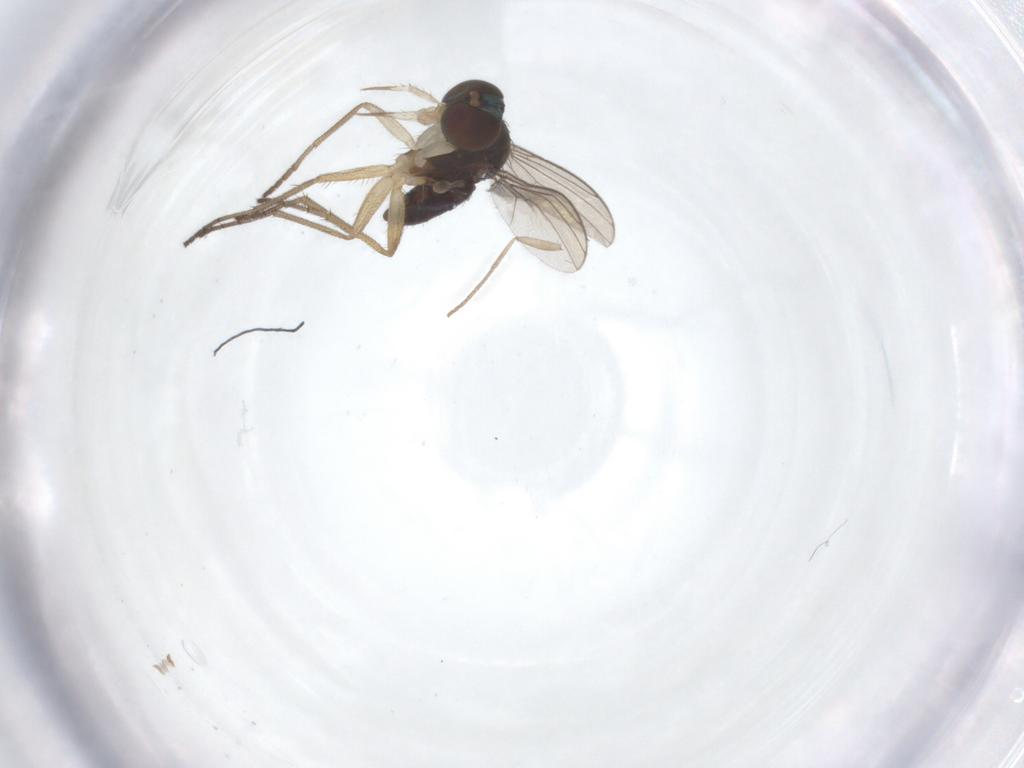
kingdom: Animalia
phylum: Arthropoda
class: Insecta
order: Diptera
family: Dolichopodidae
